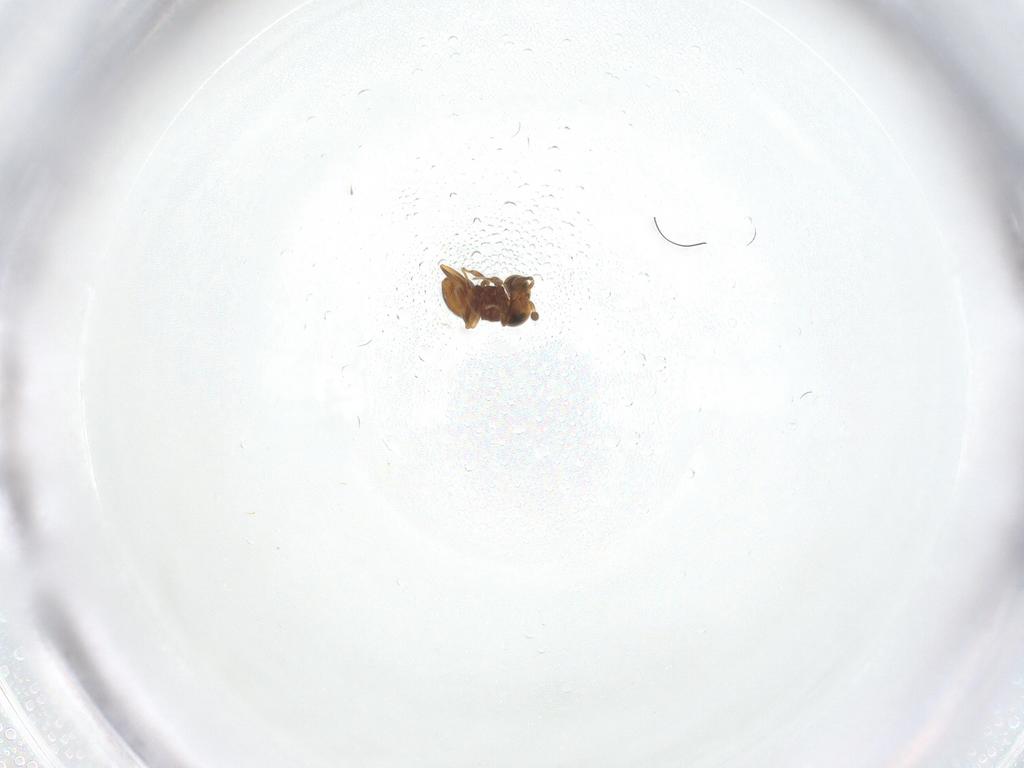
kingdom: Animalia
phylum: Arthropoda
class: Insecta
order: Hymenoptera
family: Scelionidae
